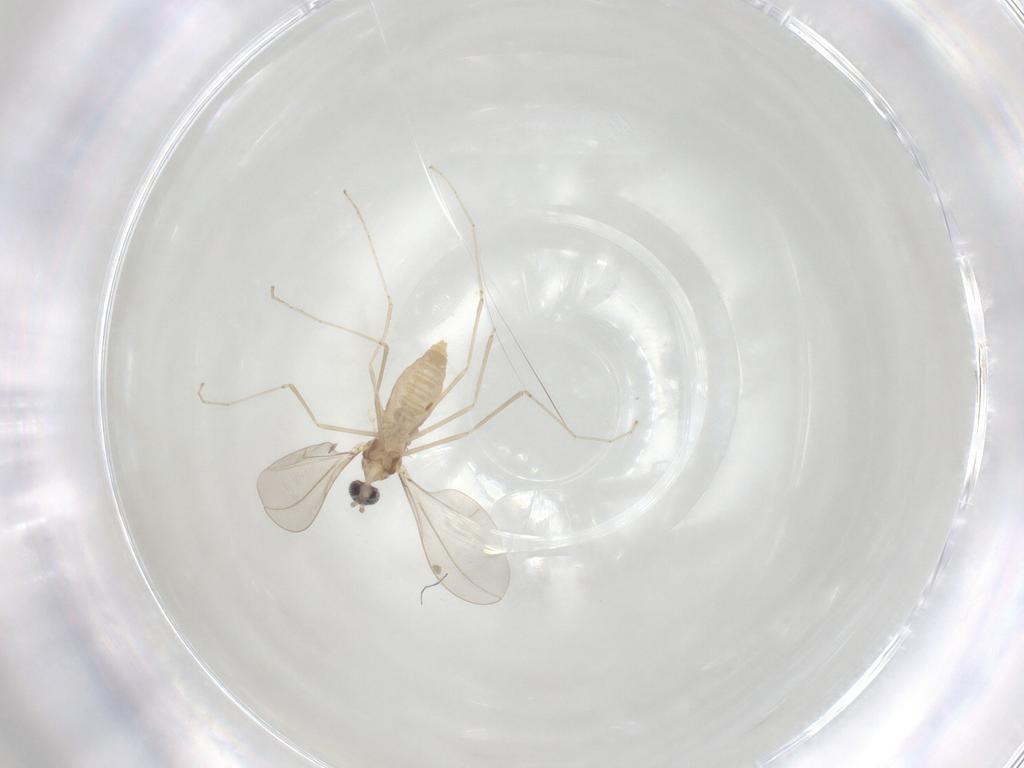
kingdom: Animalia
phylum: Arthropoda
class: Insecta
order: Diptera
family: Cecidomyiidae
